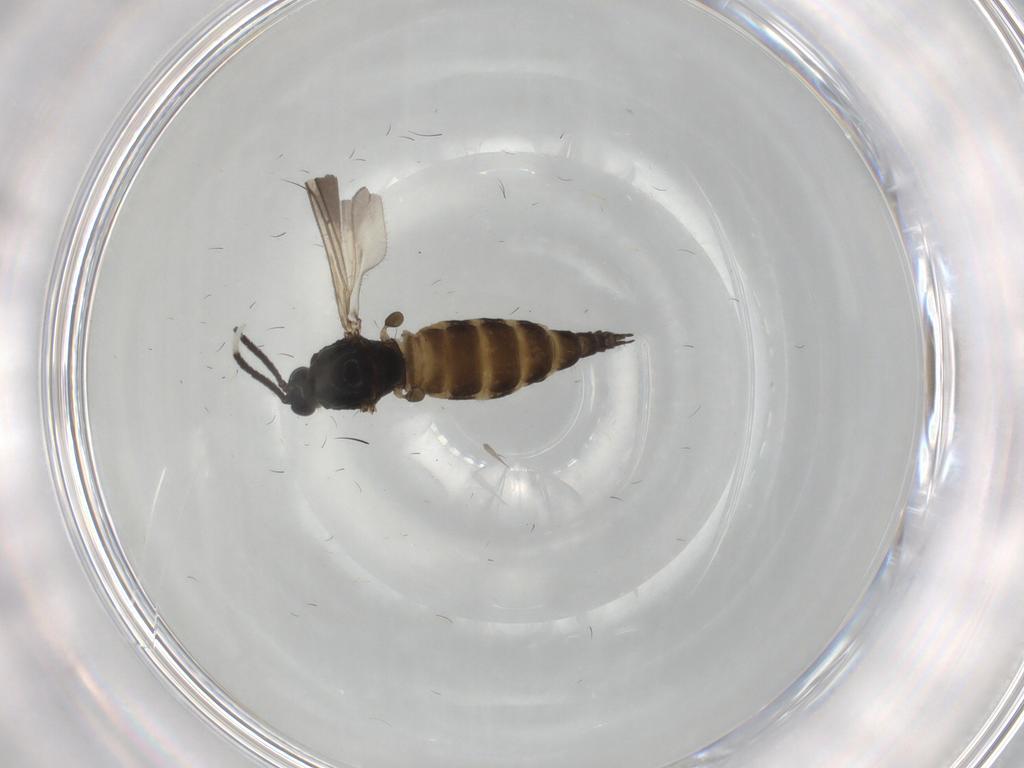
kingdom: Animalia
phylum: Arthropoda
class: Insecta
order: Diptera
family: Sciaridae
